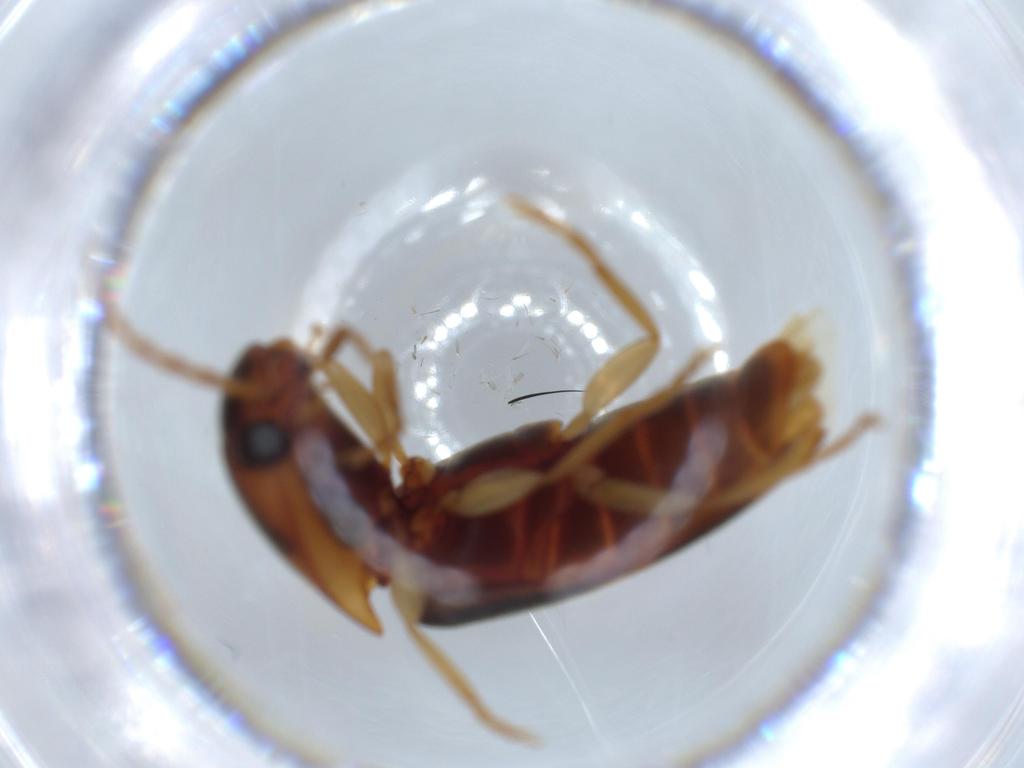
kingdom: Animalia
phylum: Arthropoda
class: Insecta
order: Coleoptera
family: Elateridae
